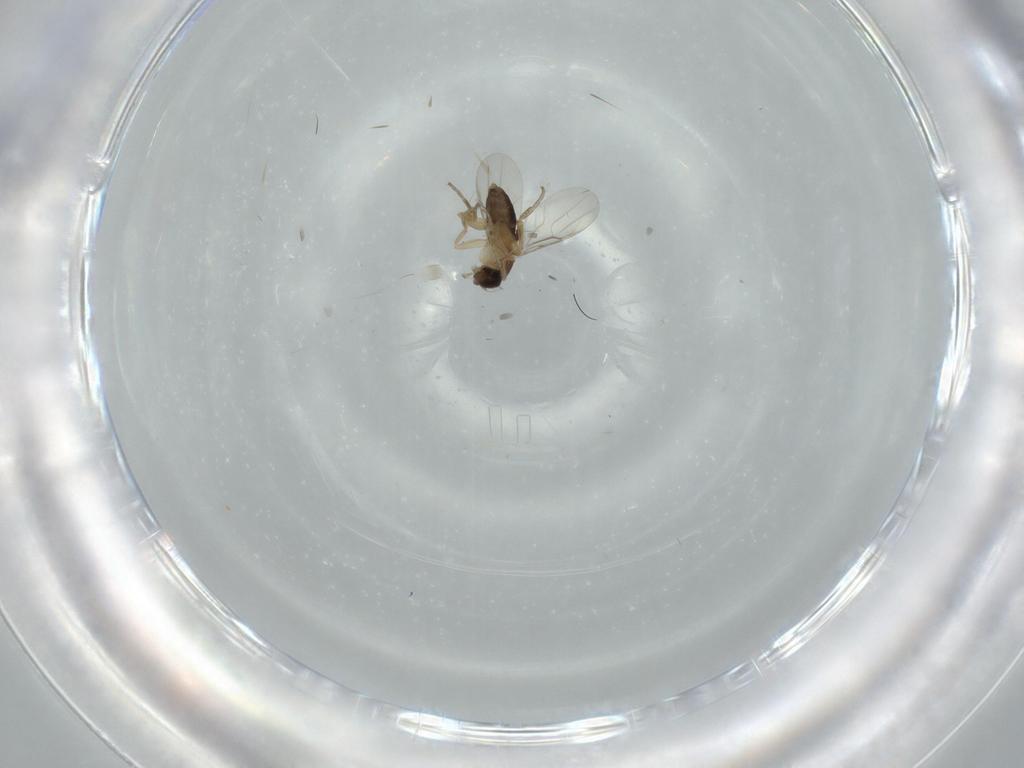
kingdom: Animalia
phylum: Arthropoda
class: Insecta
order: Diptera
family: Phoridae
